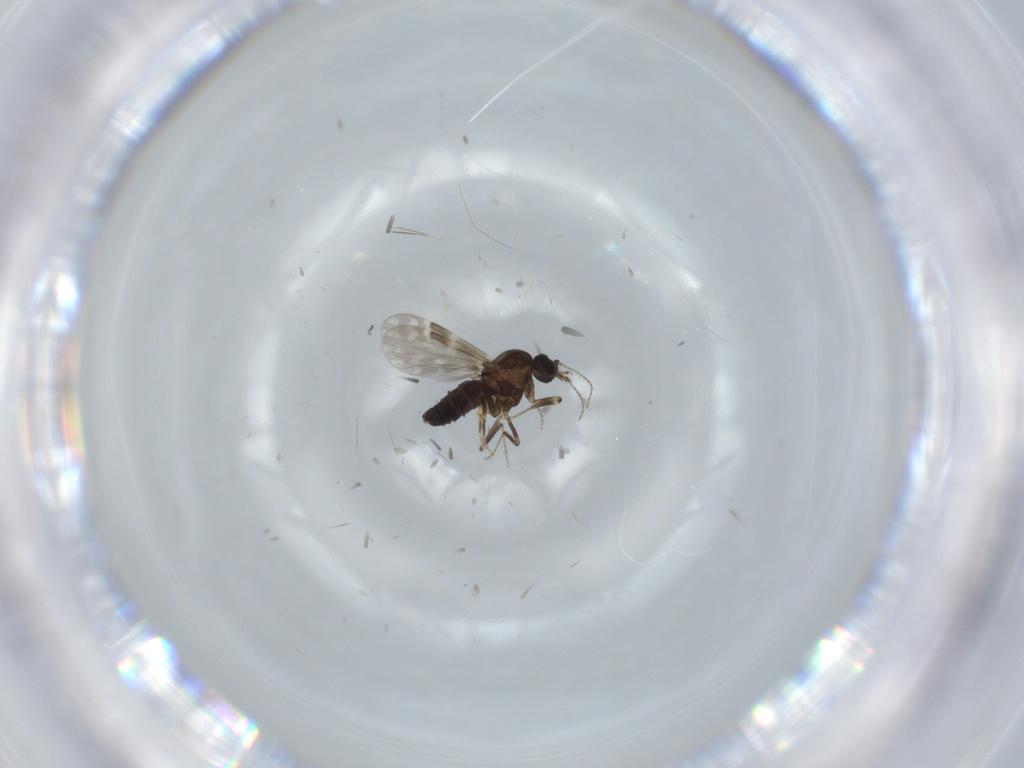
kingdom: Animalia
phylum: Arthropoda
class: Insecta
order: Diptera
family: Ceratopogonidae
